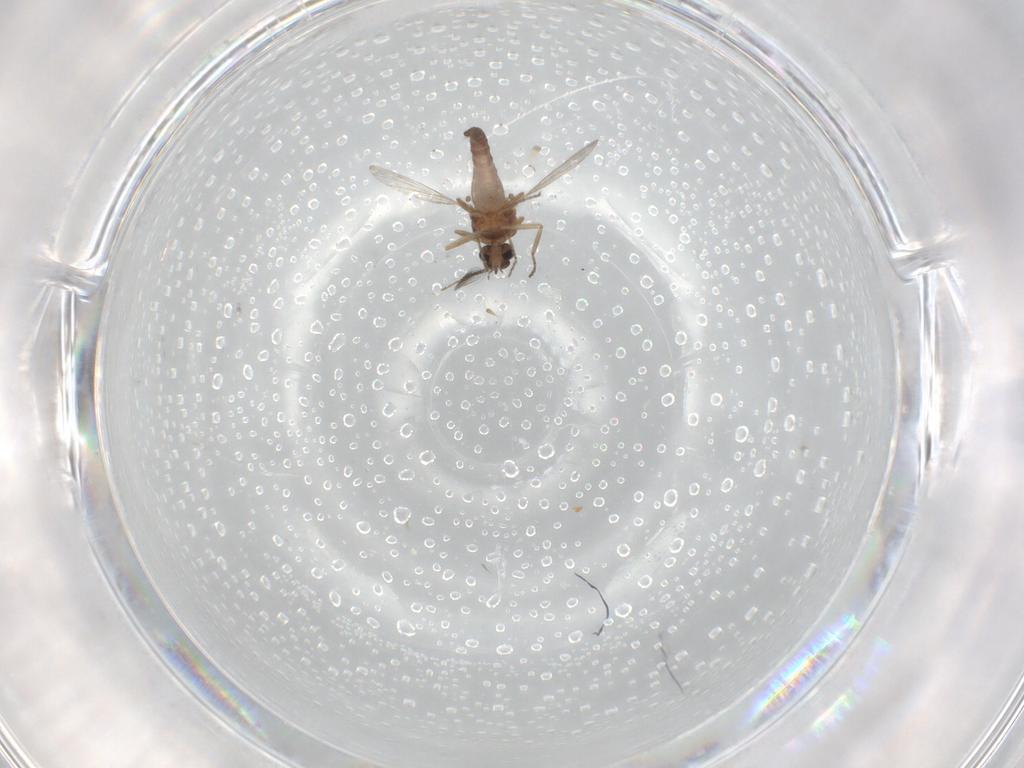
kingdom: Animalia
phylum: Arthropoda
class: Insecta
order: Diptera
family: Ceratopogonidae
